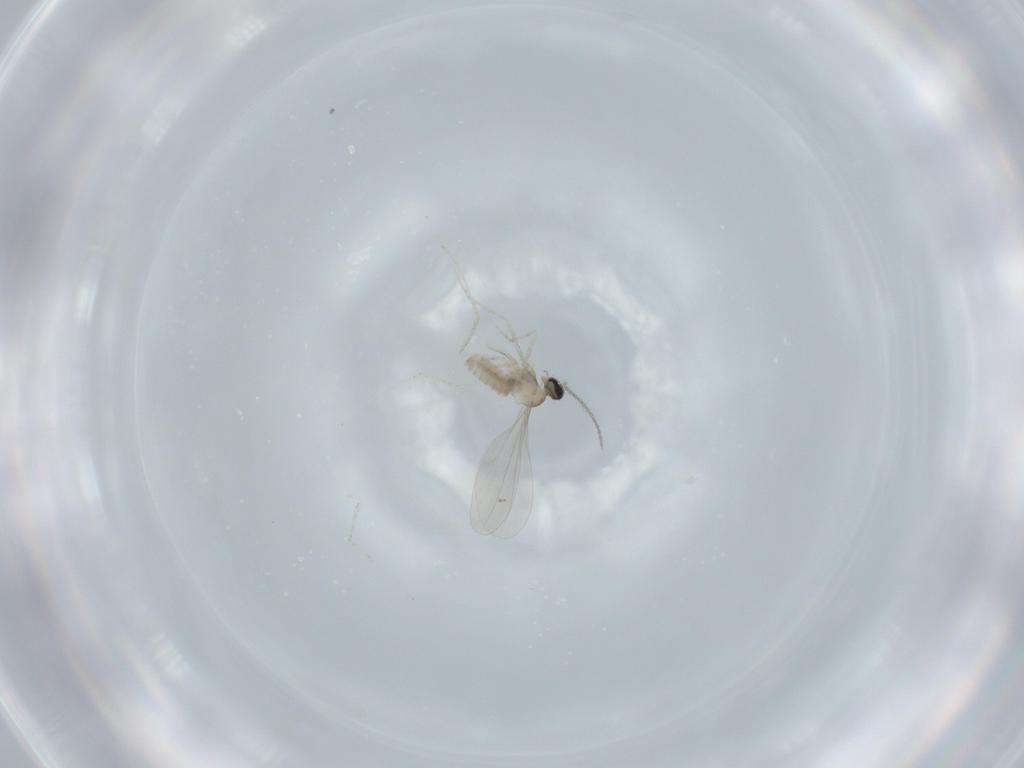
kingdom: Animalia
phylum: Arthropoda
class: Insecta
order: Diptera
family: Cecidomyiidae
